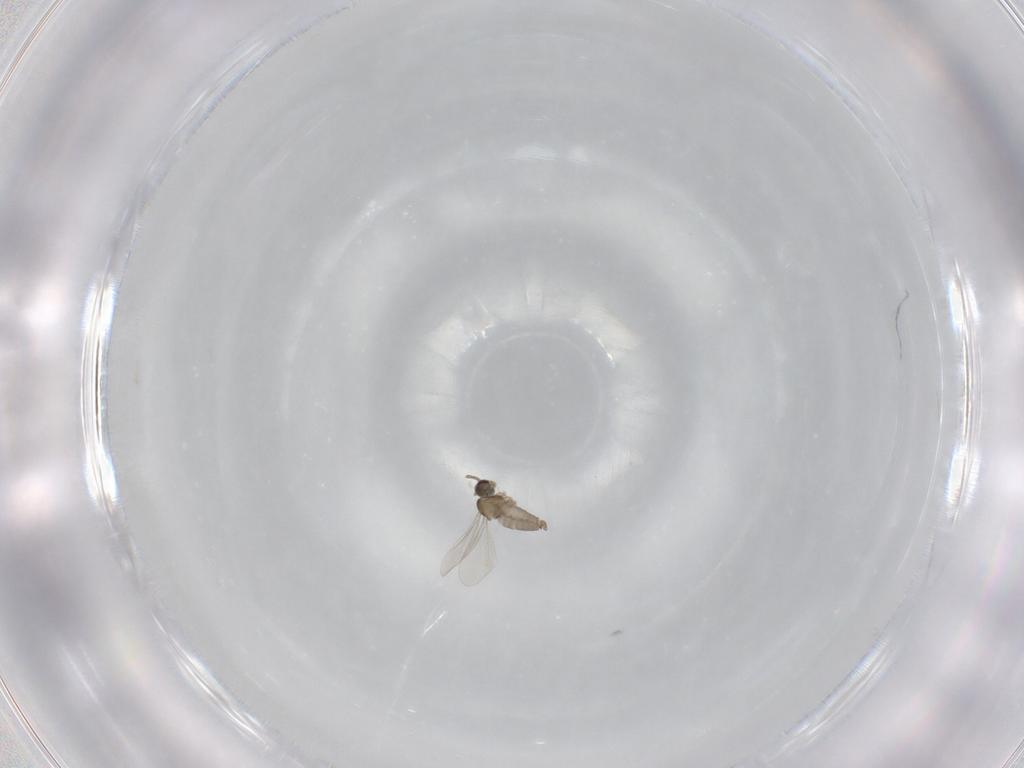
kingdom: Animalia
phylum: Arthropoda
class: Insecta
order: Diptera
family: Cecidomyiidae
